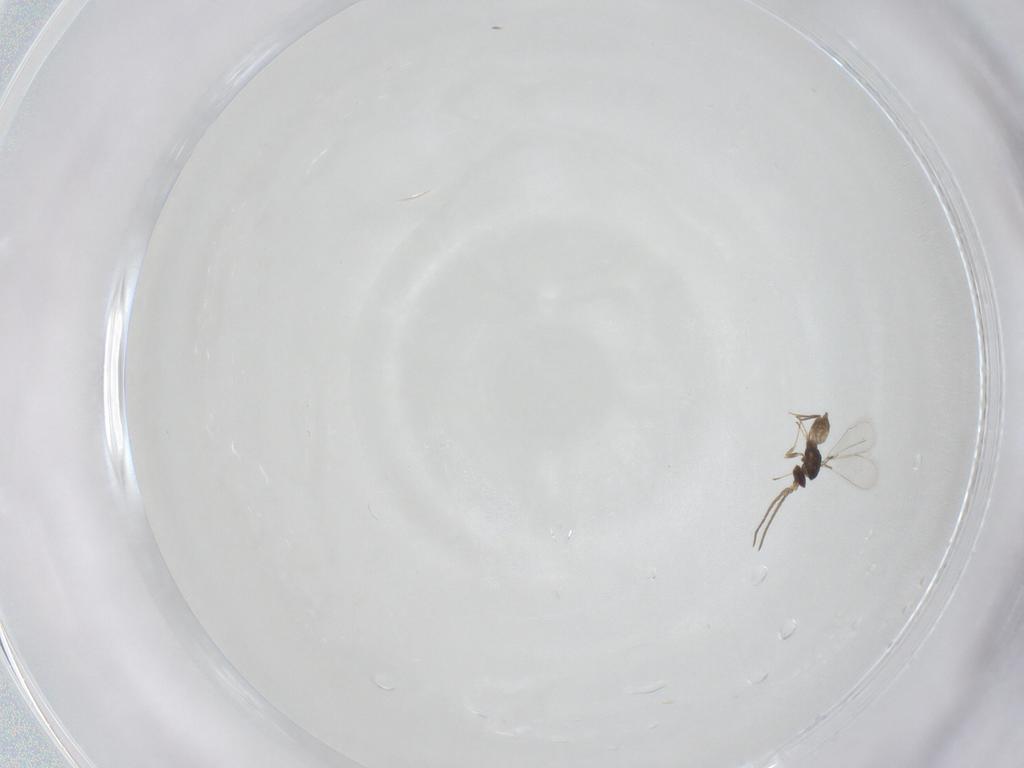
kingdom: Animalia
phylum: Arthropoda
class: Insecta
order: Hymenoptera
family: Mymaridae
